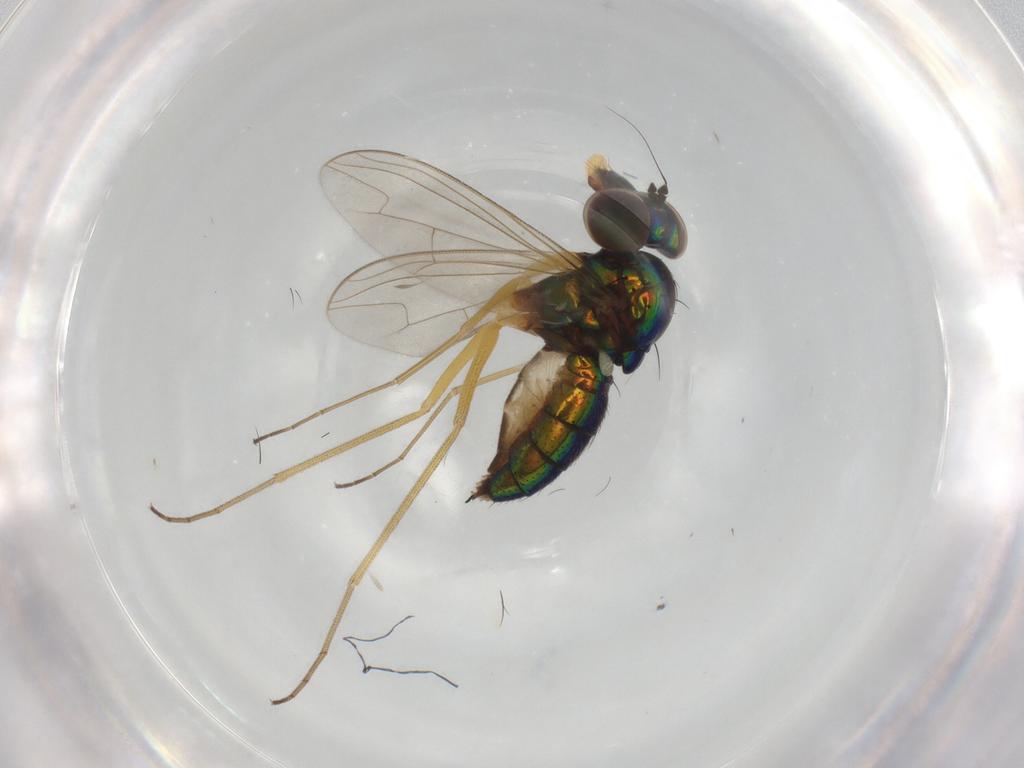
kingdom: Animalia
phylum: Arthropoda
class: Insecta
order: Diptera
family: Dolichopodidae
